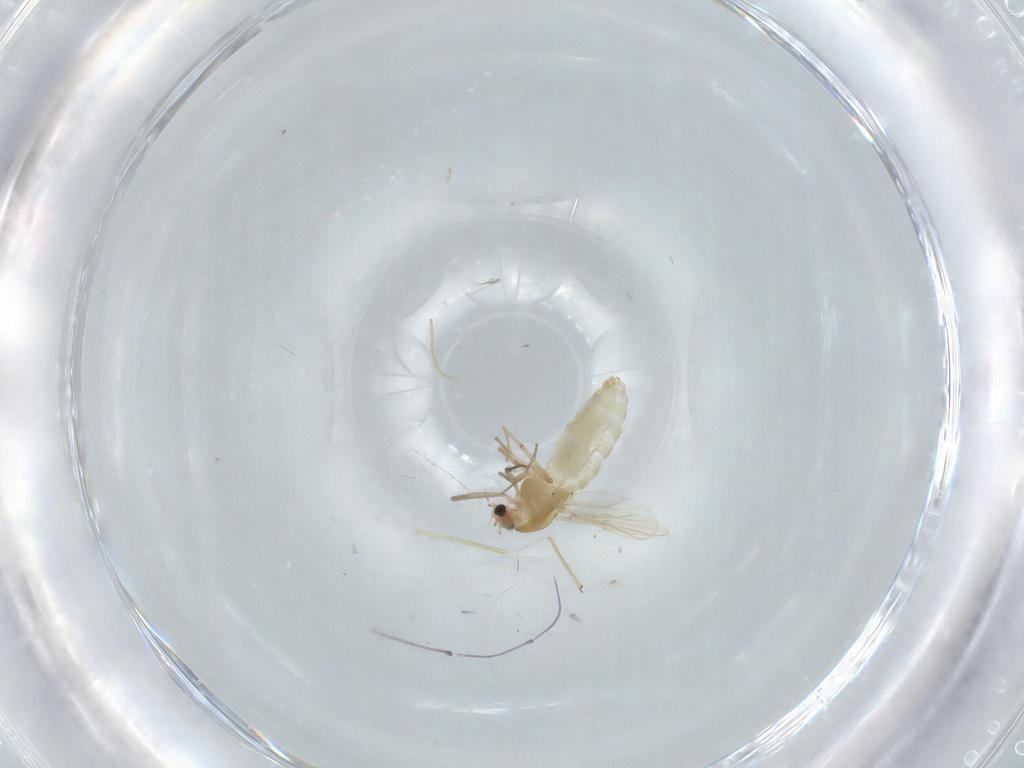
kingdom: Animalia
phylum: Arthropoda
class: Insecta
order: Diptera
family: Chironomidae
